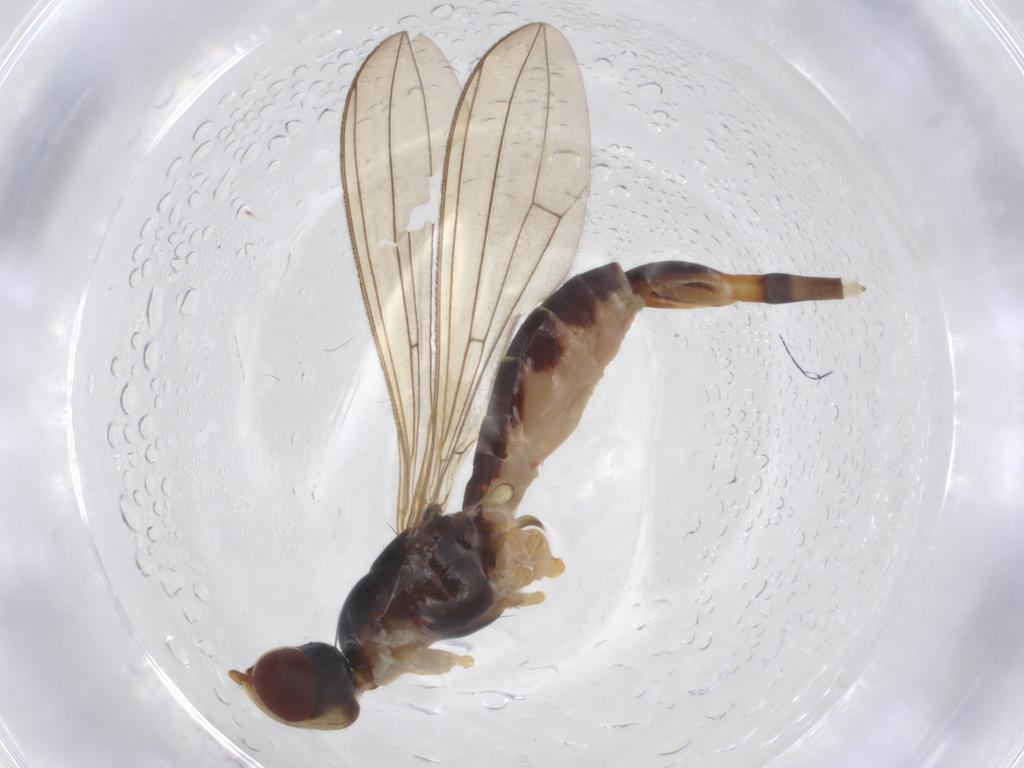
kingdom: Animalia
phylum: Arthropoda
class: Insecta
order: Diptera
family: Micropezidae
